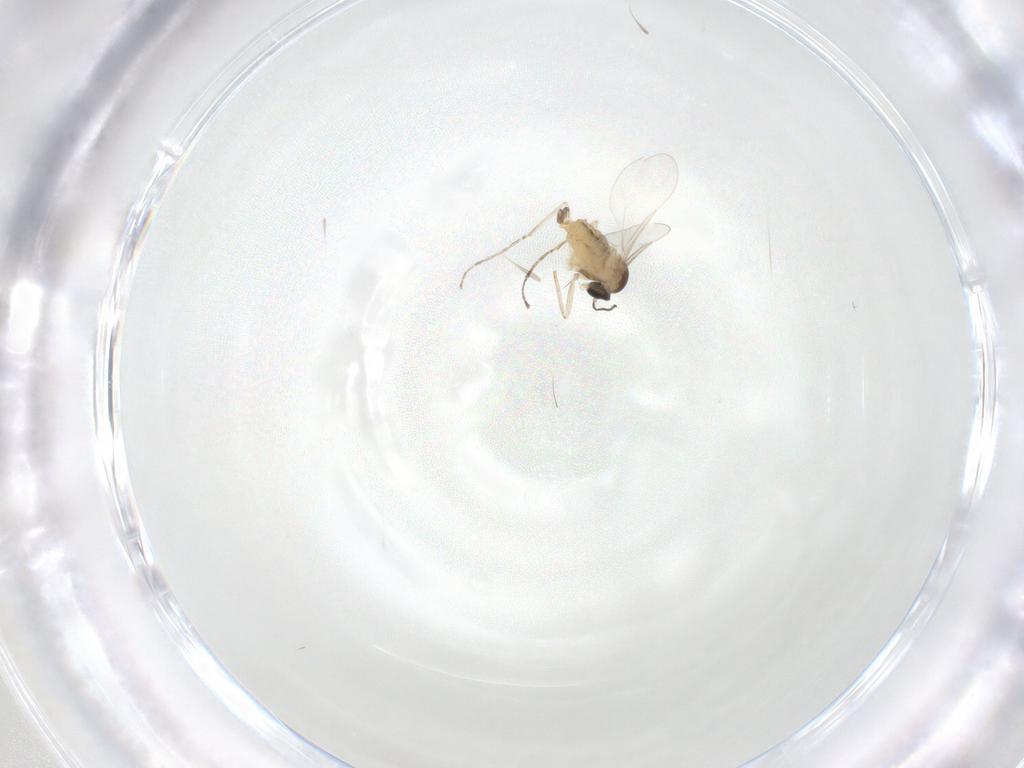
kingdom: Animalia
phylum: Arthropoda
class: Insecta
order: Diptera
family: Cecidomyiidae
